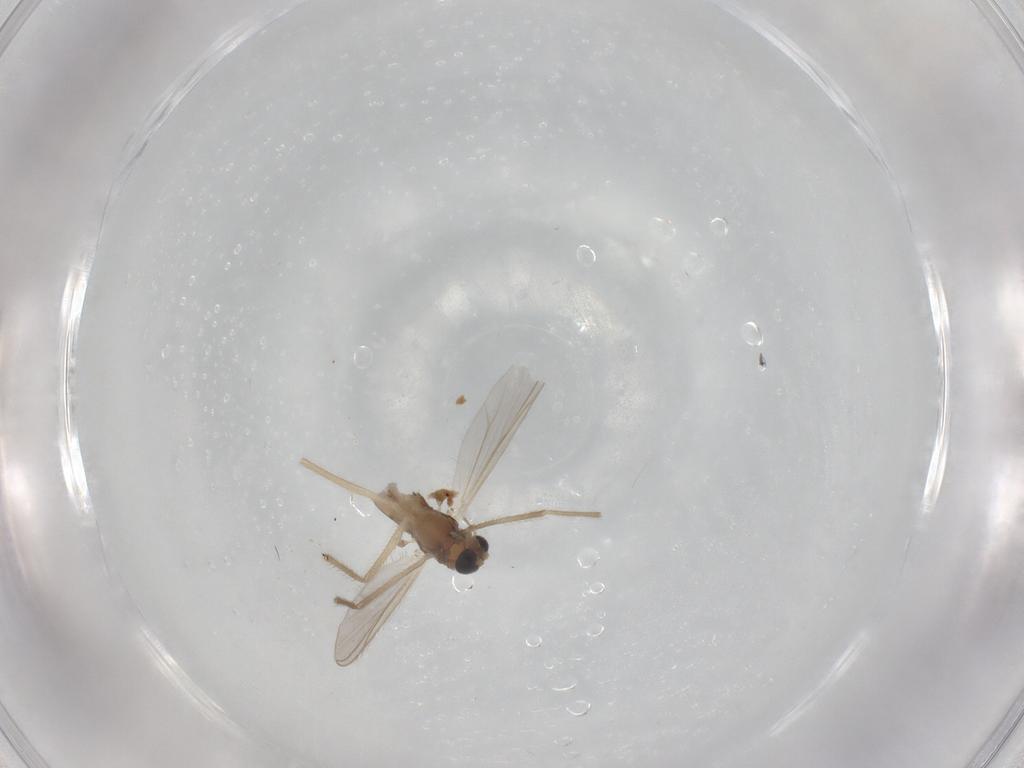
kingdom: Animalia
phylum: Arthropoda
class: Insecta
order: Diptera
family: Chironomidae
